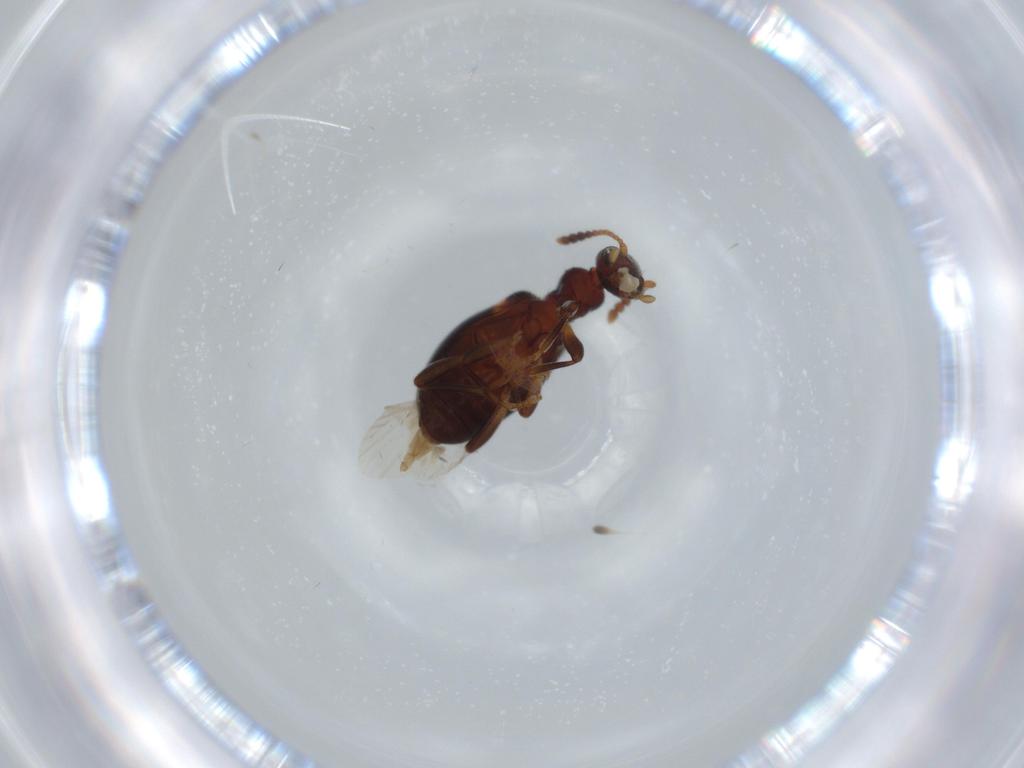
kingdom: Animalia
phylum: Arthropoda
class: Insecta
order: Coleoptera
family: Anthicidae
